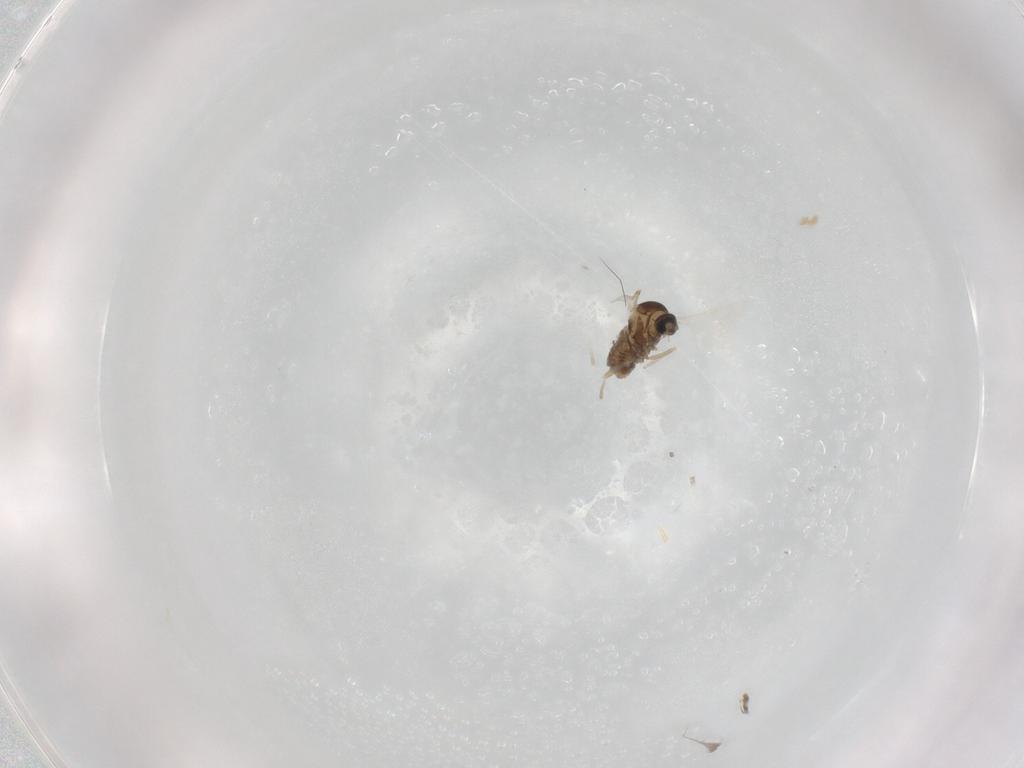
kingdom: Animalia
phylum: Arthropoda
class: Insecta
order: Diptera
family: Cecidomyiidae
